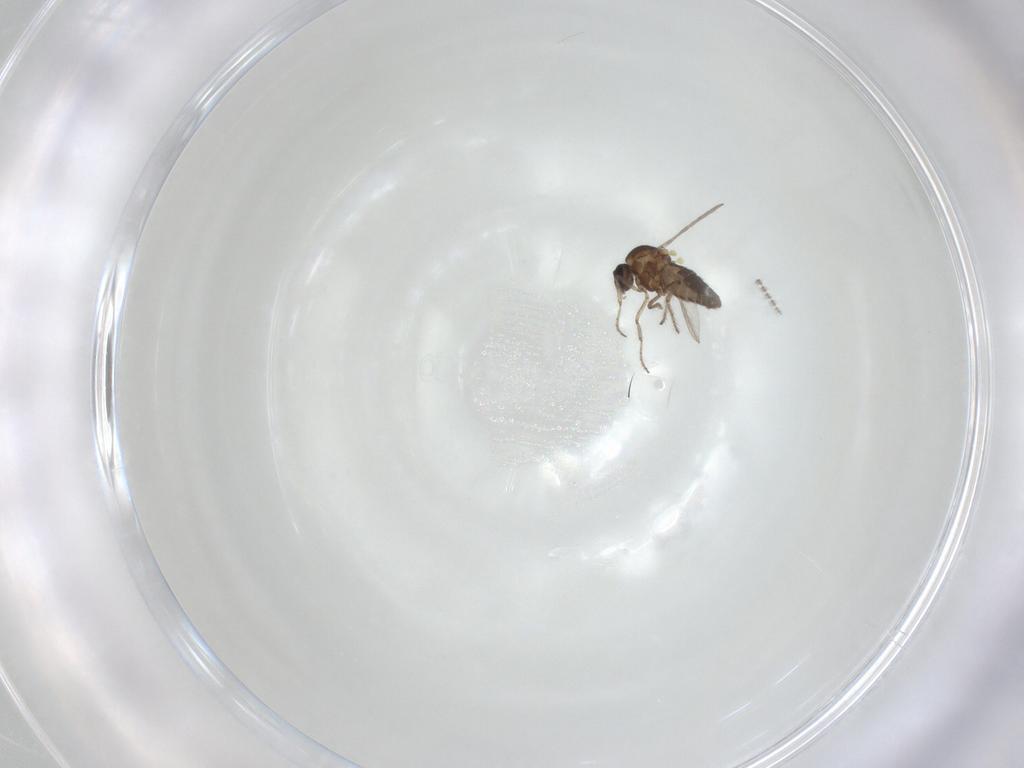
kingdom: Animalia
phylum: Arthropoda
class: Insecta
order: Diptera
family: Ceratopogonidae
